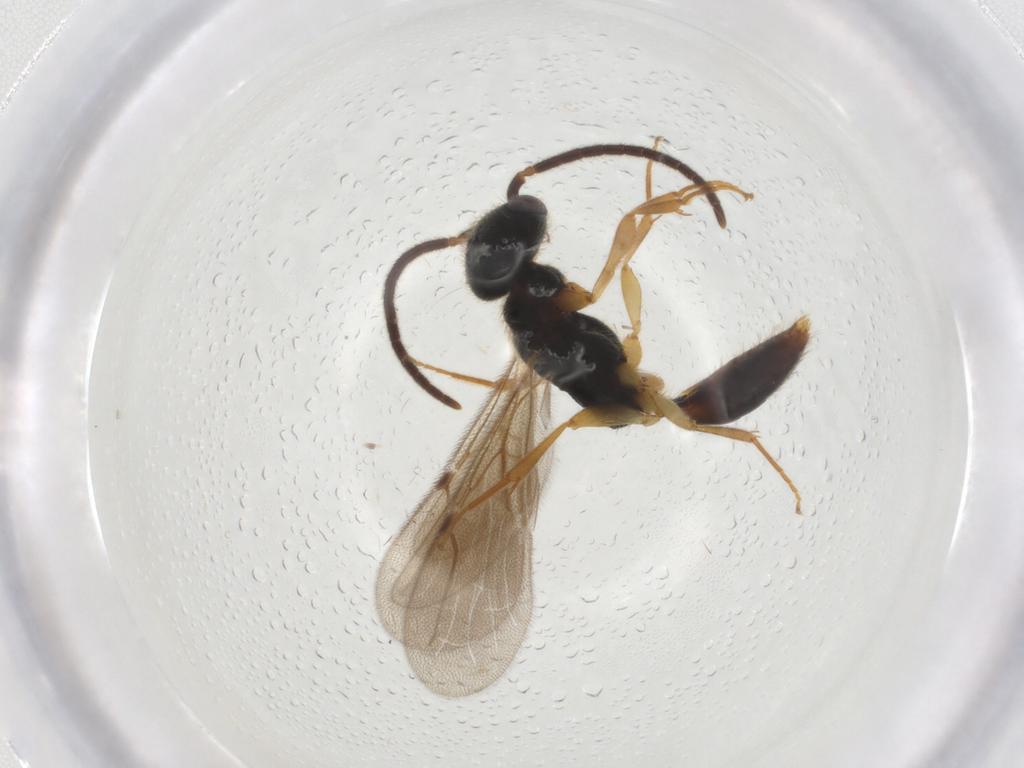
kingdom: Animalia
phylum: Arthropoda
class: Insecta
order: Hymenoptera
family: Bethylidae
